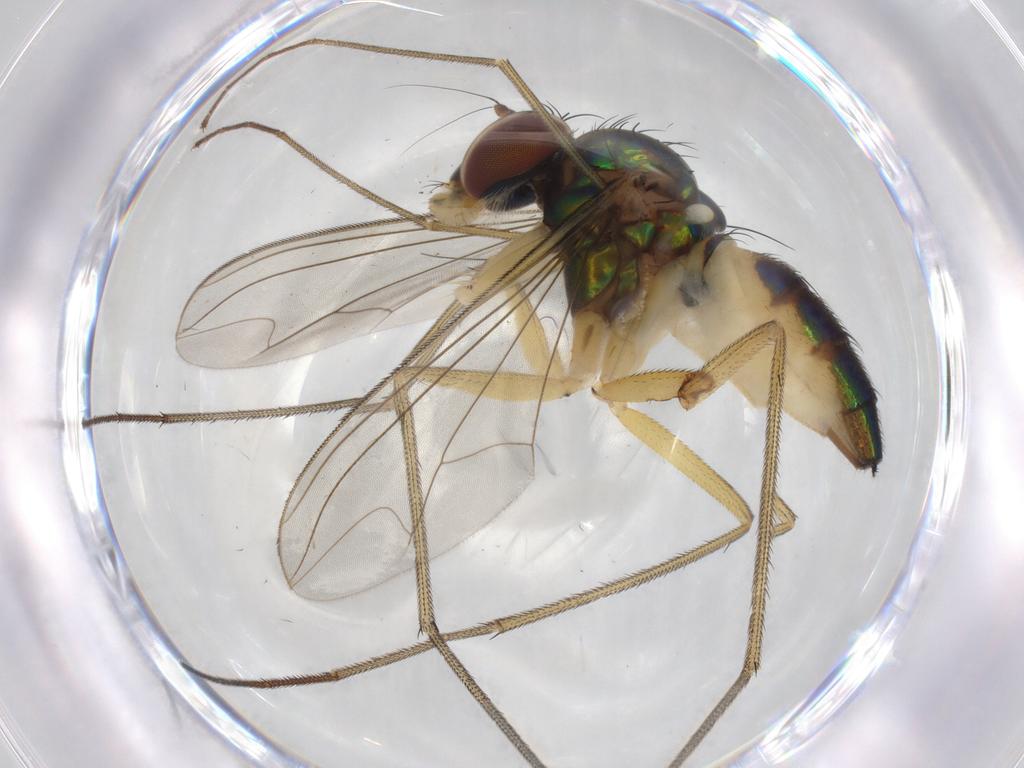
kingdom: Animalia
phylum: Arthropoda
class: Insecta
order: Diptera
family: Dolichopodidae
